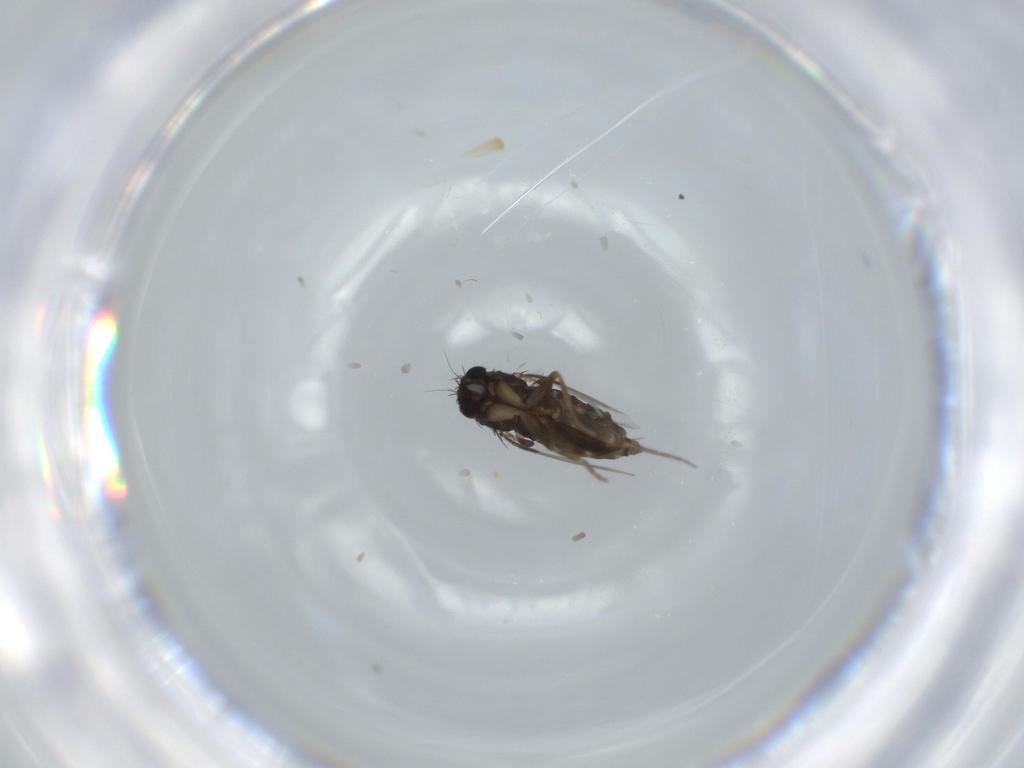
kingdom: Animalia
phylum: Arthropoda
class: Insecta
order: Diptera
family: Phoridae
